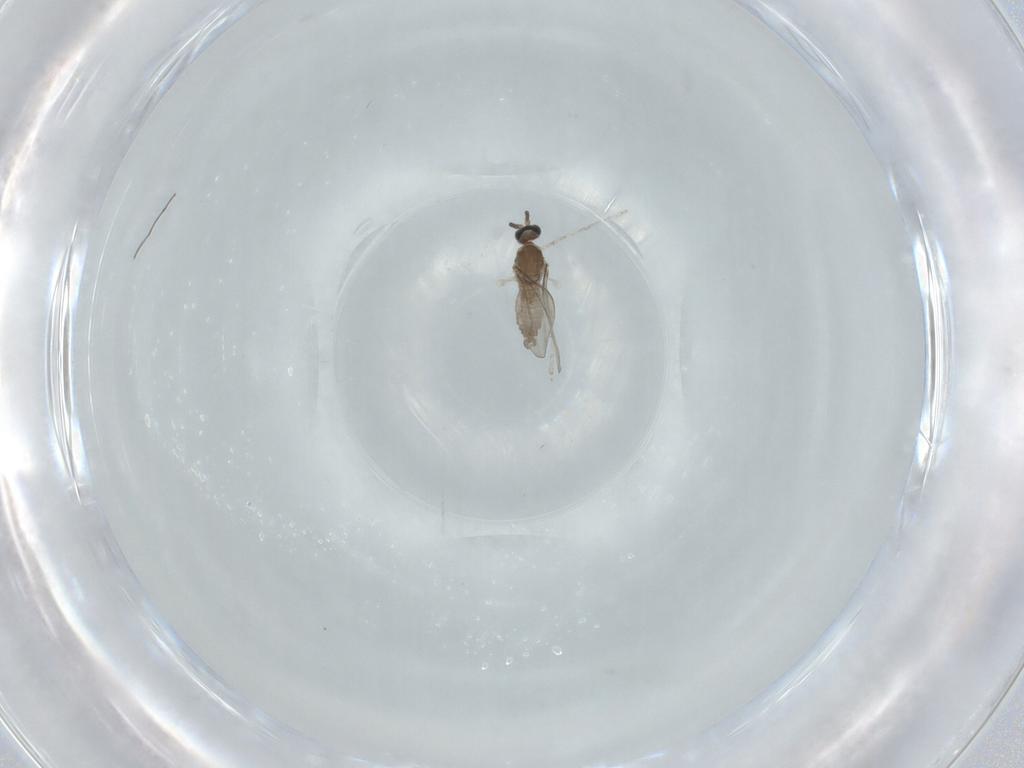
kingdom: Animalia
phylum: Arthropoda
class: Insecta
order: Diptera
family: Cecidomyiidae
